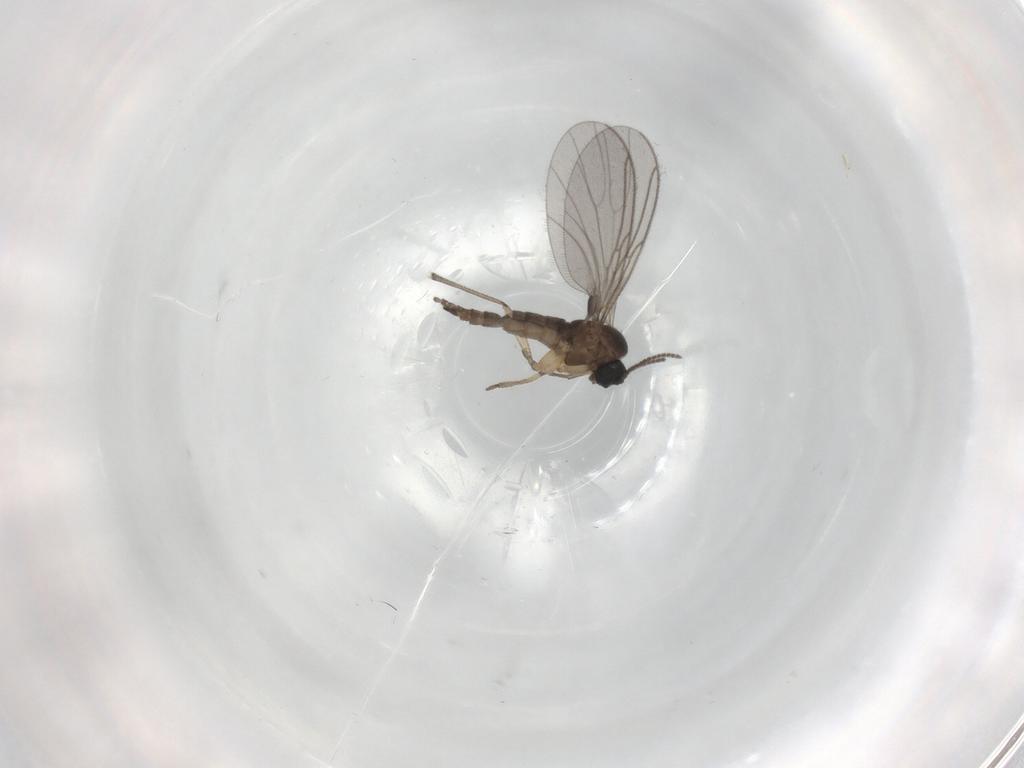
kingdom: Animalia
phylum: Arthropoda
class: Insecta
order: Diptera
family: Sciaridae
